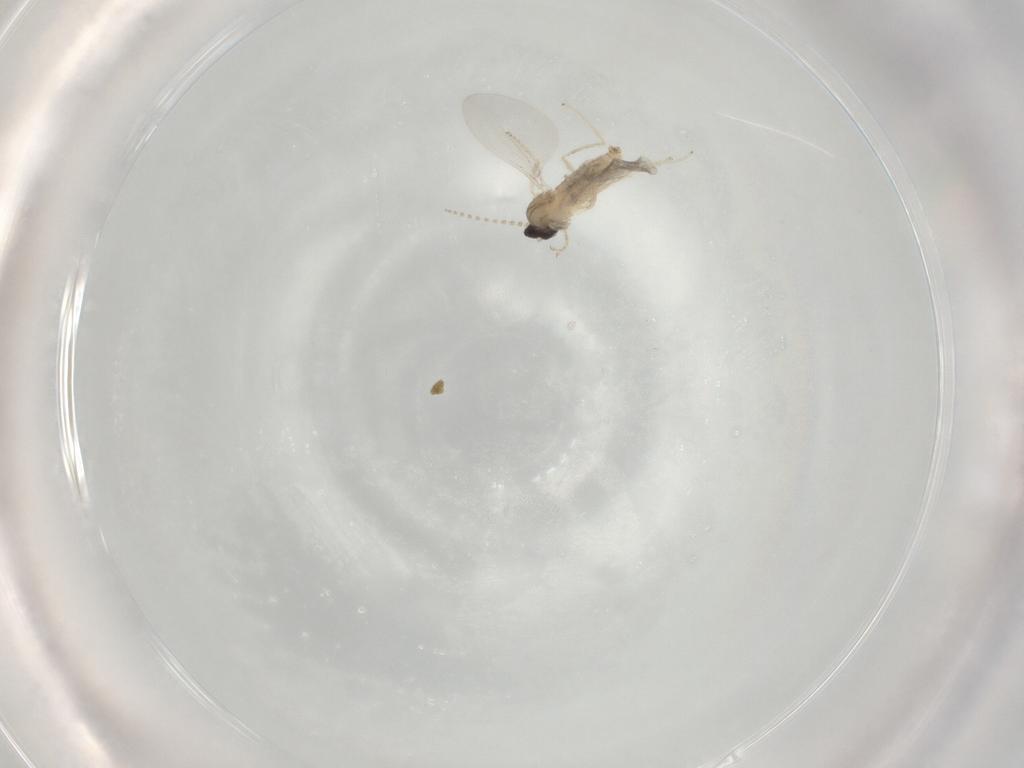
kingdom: Animalia
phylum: Arthropoda
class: Insecta
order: Diptera
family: Cecidomyiidae
